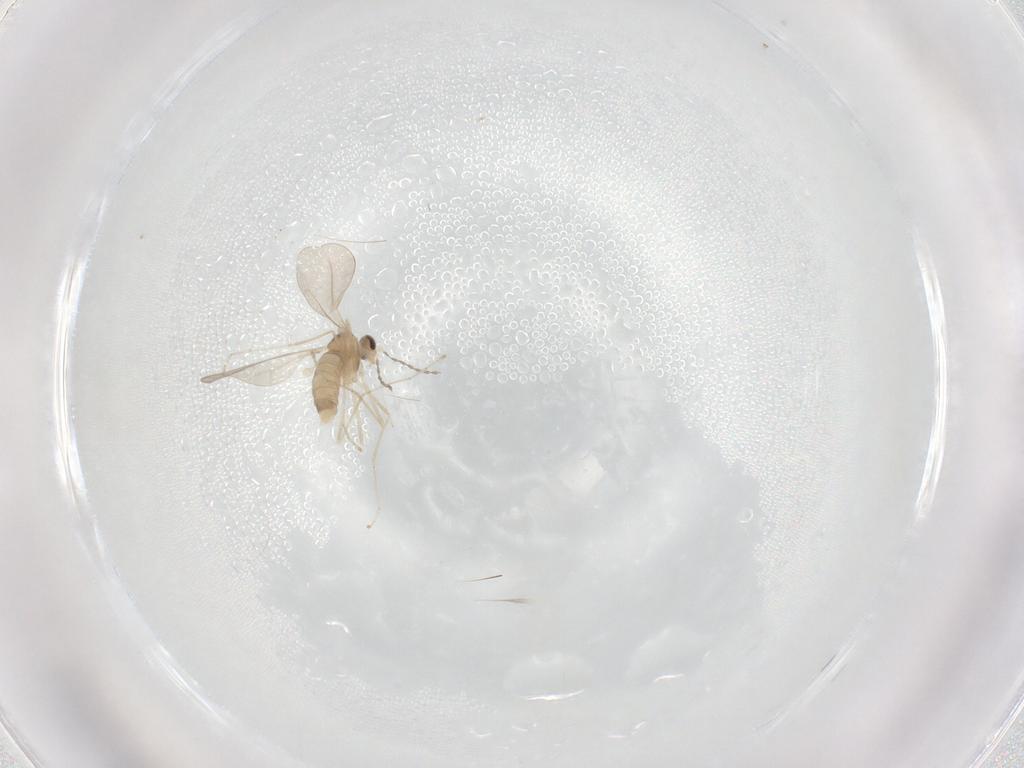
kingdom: Animalia
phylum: Arthropoda
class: Insecta
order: Diptera
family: Cecidomyiidae
